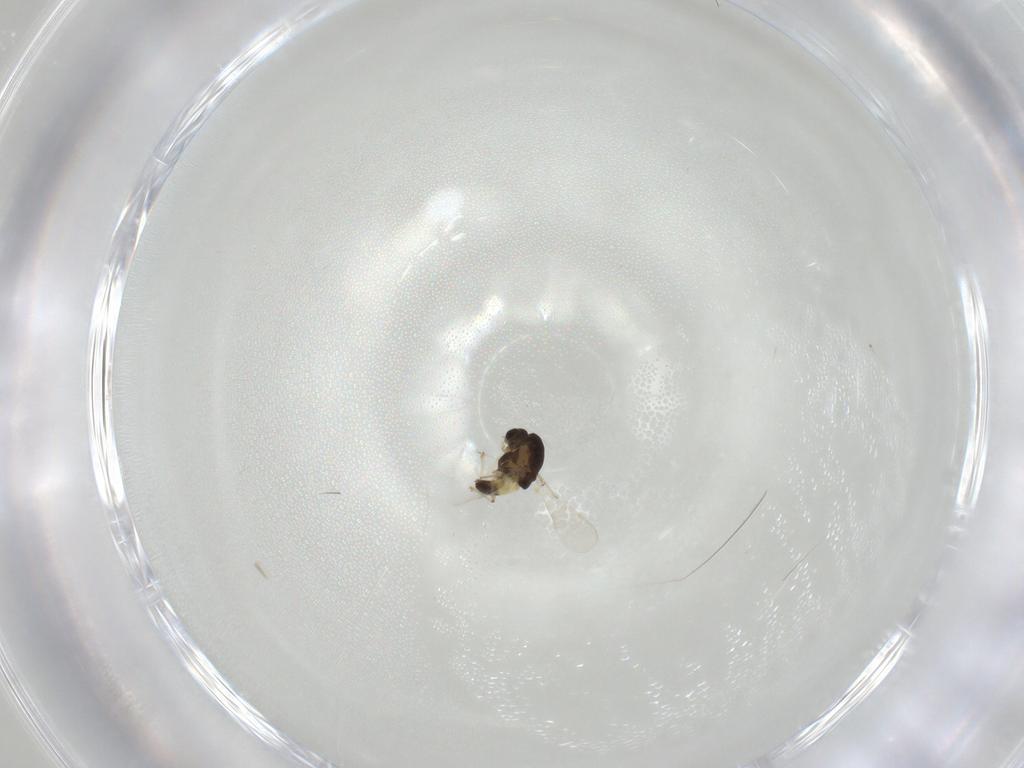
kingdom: Animalia
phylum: Arthropoda
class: Insecta
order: Diptera
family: Chironomidae
